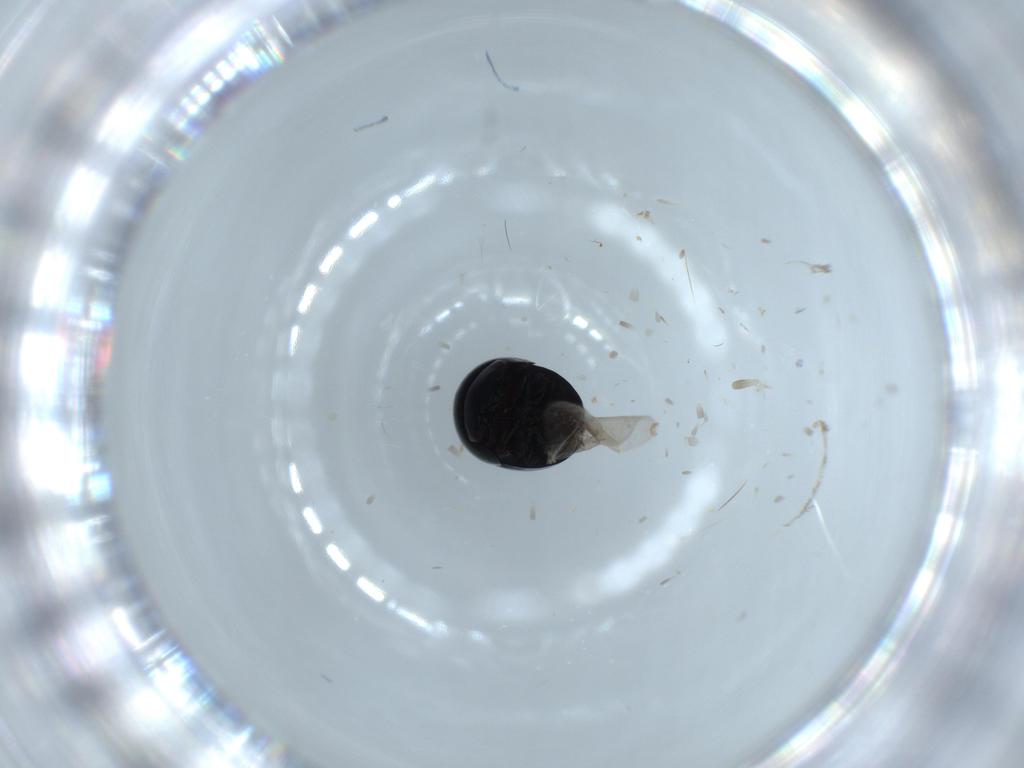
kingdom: Animalia
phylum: Arthropoda
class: Insecta
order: Coleoptera
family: Cybocephalidae
